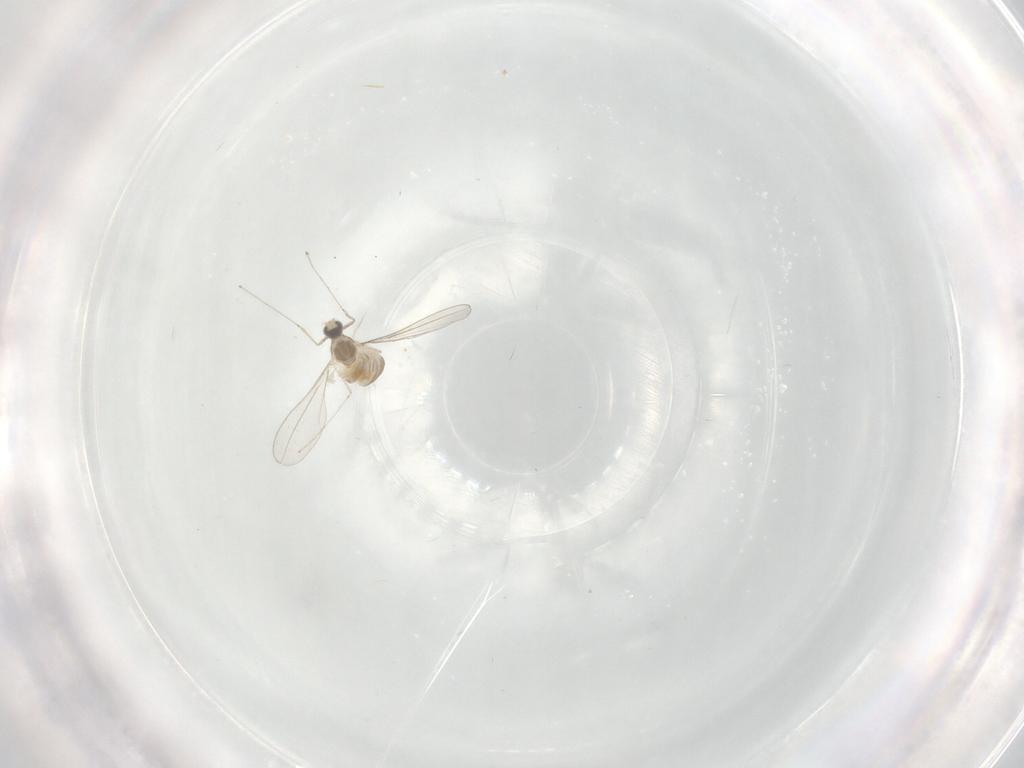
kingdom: Animalia
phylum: Arthropoda
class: Insecta
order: Diptera
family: Cecidomyiidae
